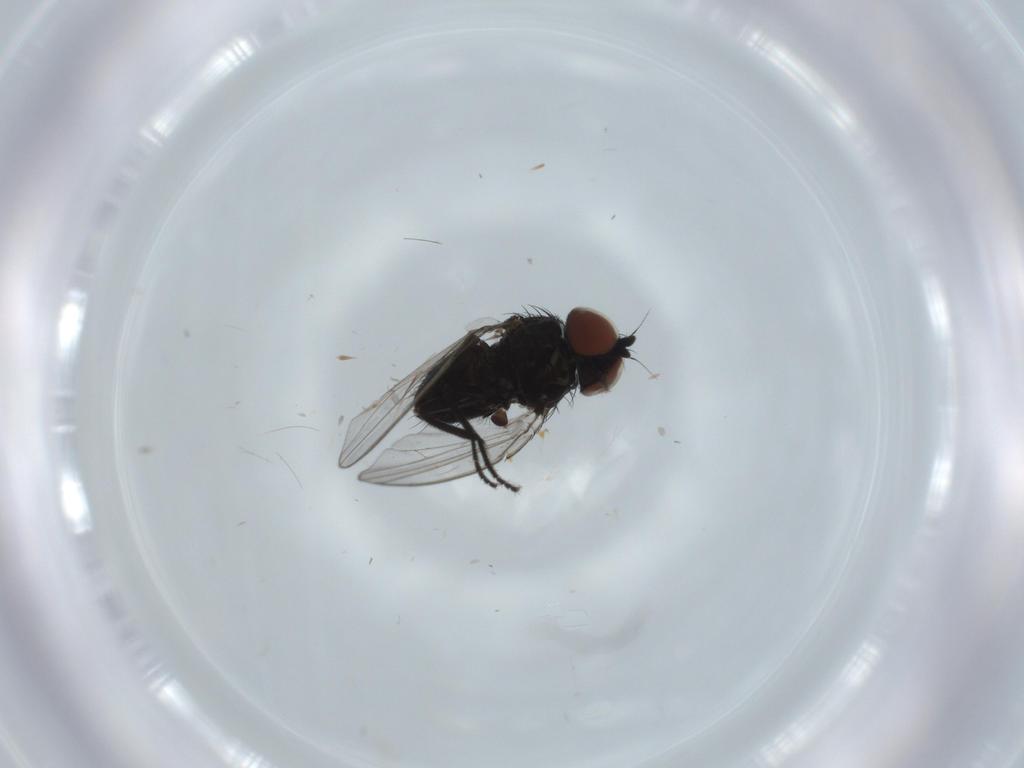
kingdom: Animalia
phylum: Arthropoda
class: Insecta
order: Diptera
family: Milichiidae
